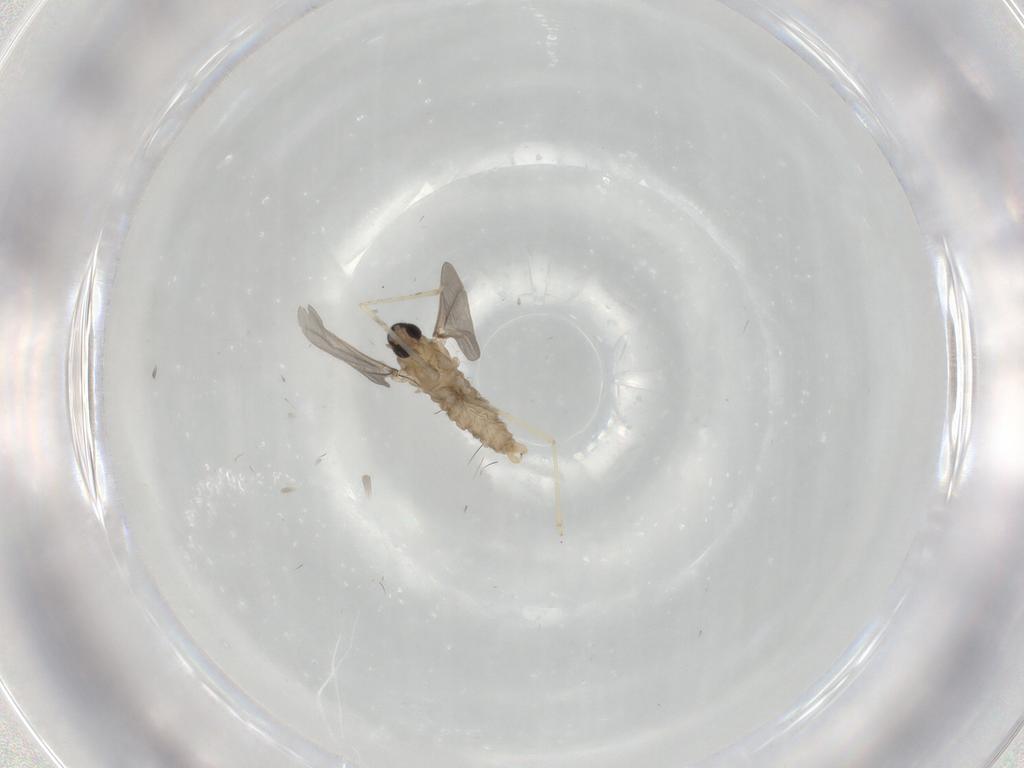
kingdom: Animalia
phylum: Arthropoda
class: Insecta
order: Diptera
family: Cecidomyiidae
